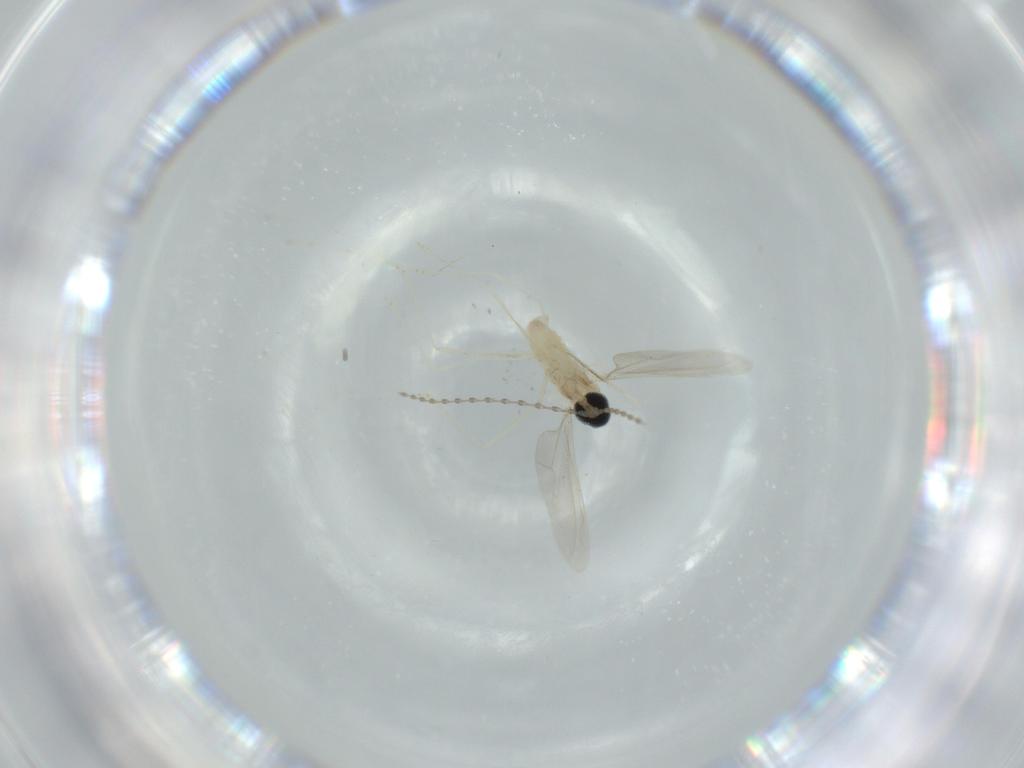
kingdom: Animalia
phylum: Arthropoda
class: Insecta
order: Diptera
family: Cecidomyiidae
